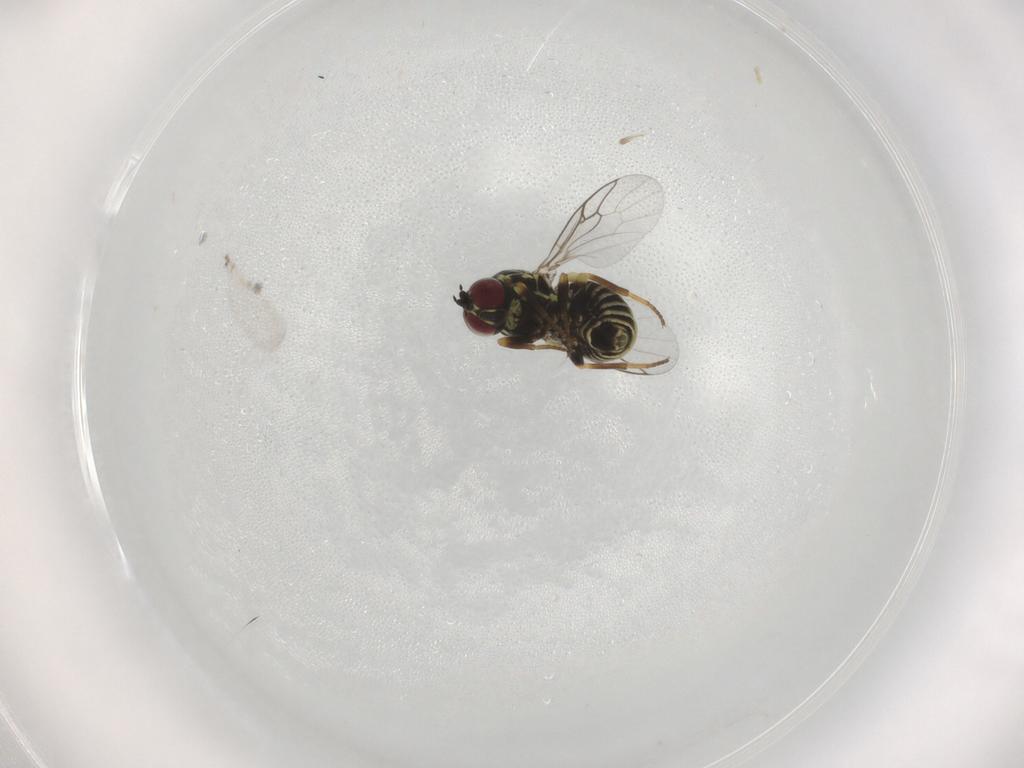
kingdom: Animalia
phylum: Arthropoda
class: Insecta
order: Diptera
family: Bombyliidae
